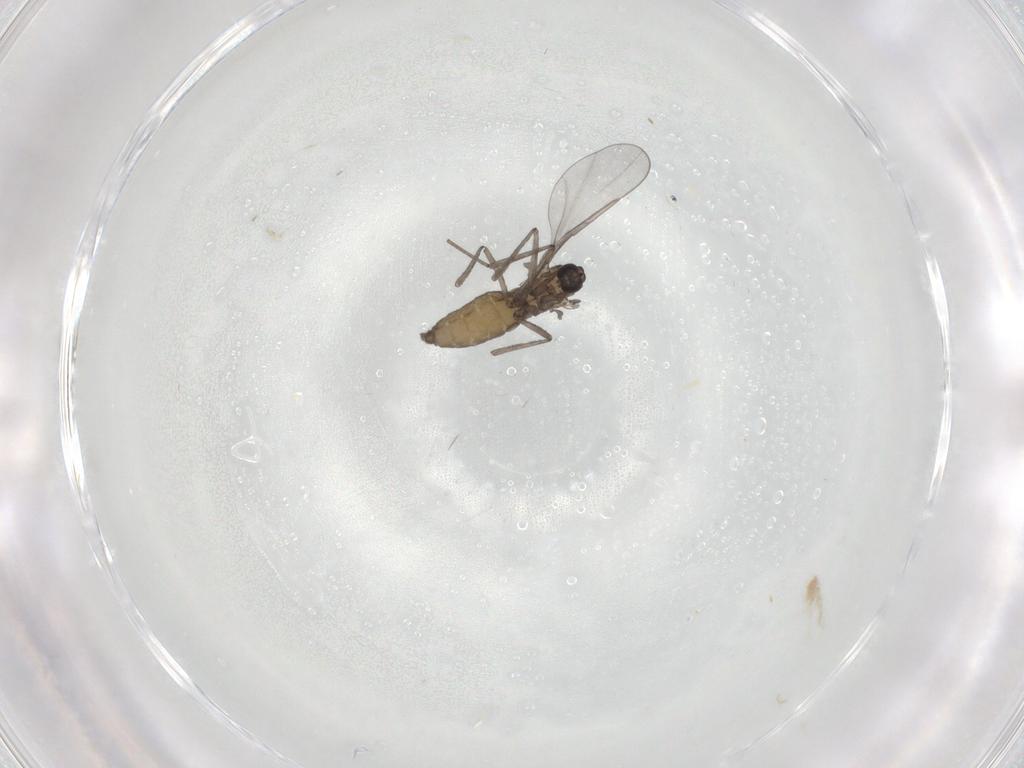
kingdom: Animalia
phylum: Arthropoda
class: Insecta
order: Diptera
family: Cecidomyiidae
